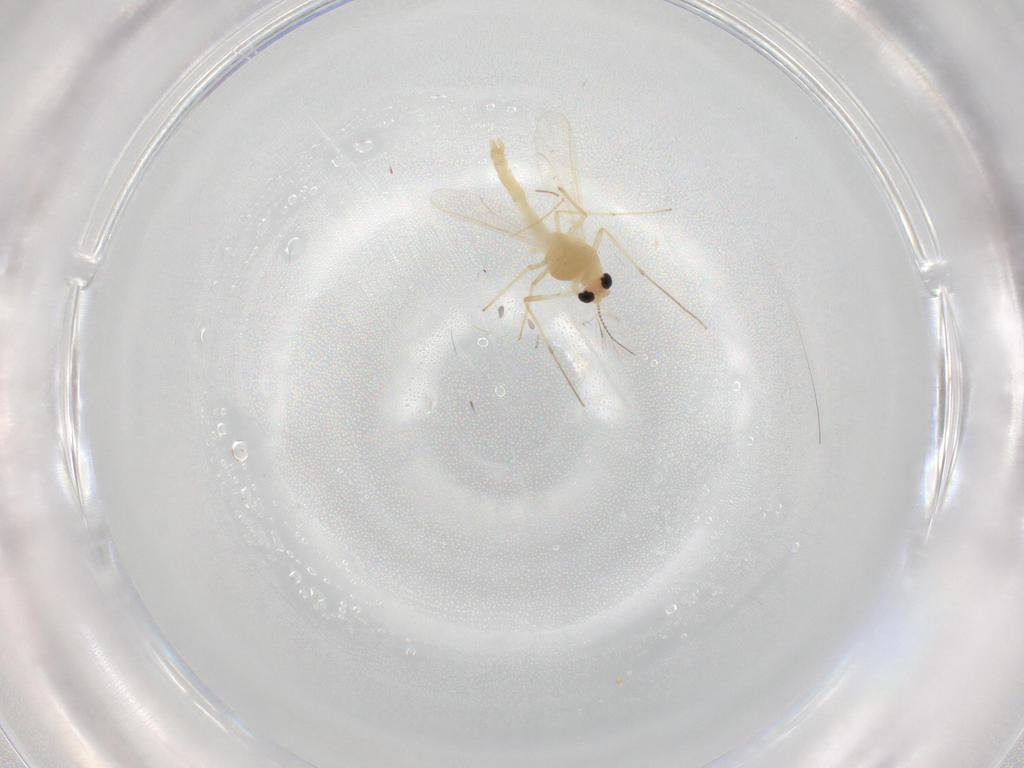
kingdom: Animalia
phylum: Arthropoda
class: Insecta
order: Diptera
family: Chironomidae
